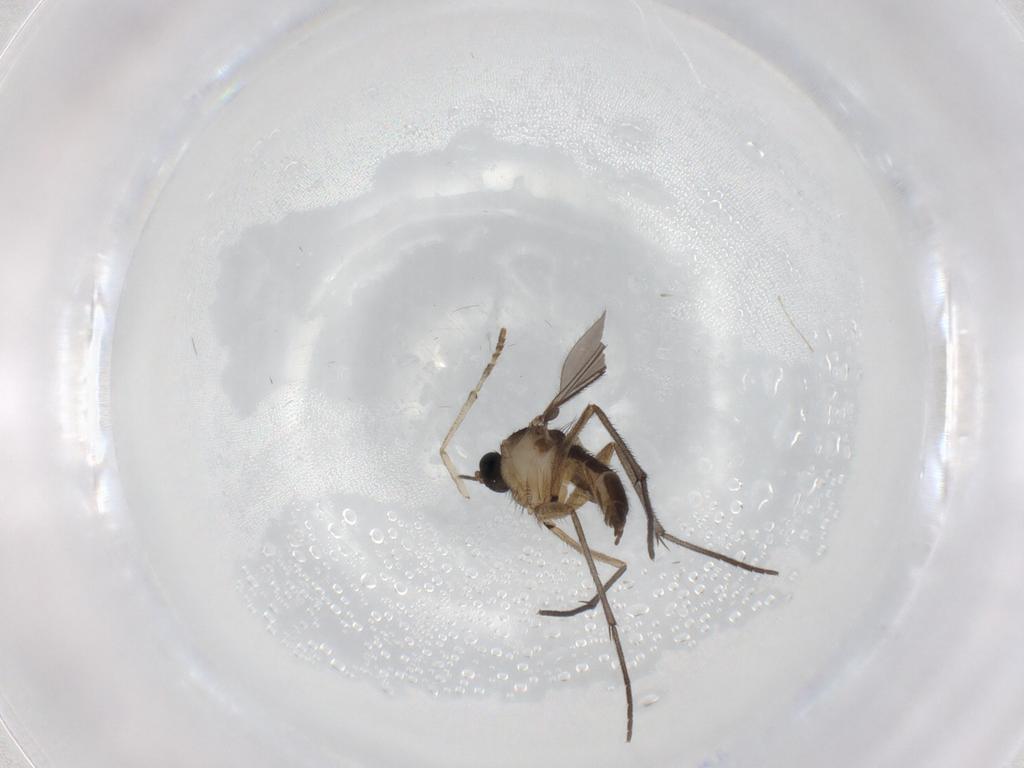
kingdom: Animalia
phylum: Arthropoda
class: Insecta
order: Diptera
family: Sciaridae
